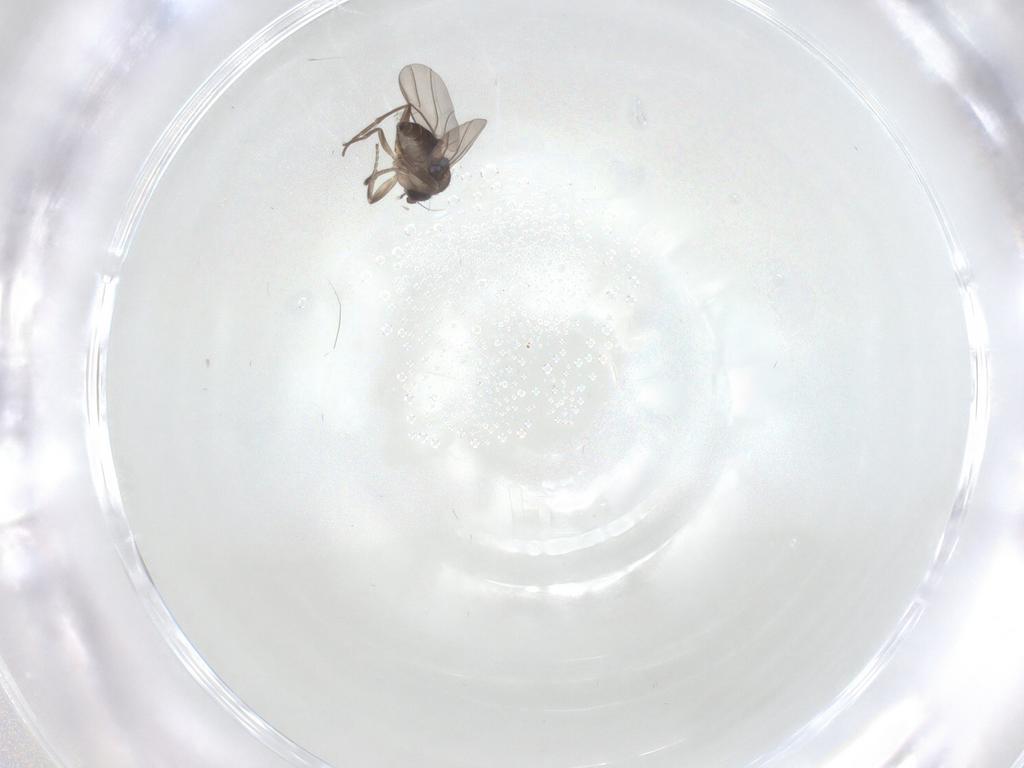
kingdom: Animalia
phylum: Arthropoda
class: Insecta
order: Diptera
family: Phoridae
